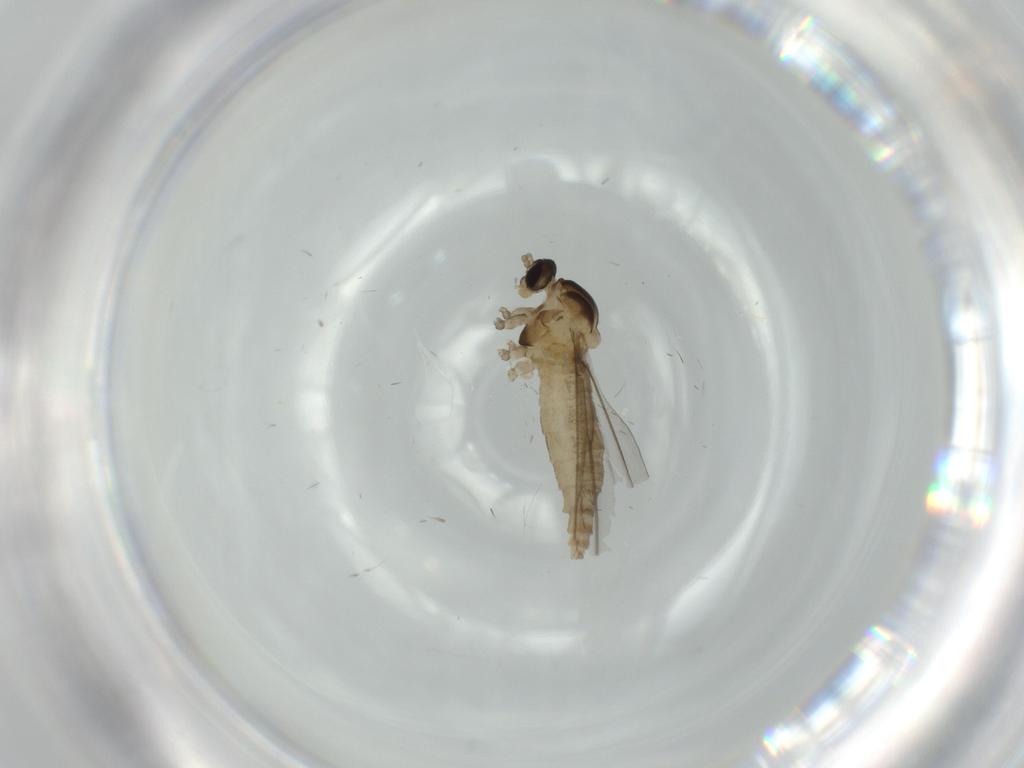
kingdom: Animalia
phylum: Arthropoda
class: Insecta
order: Diptera
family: Cecidomyiidae
